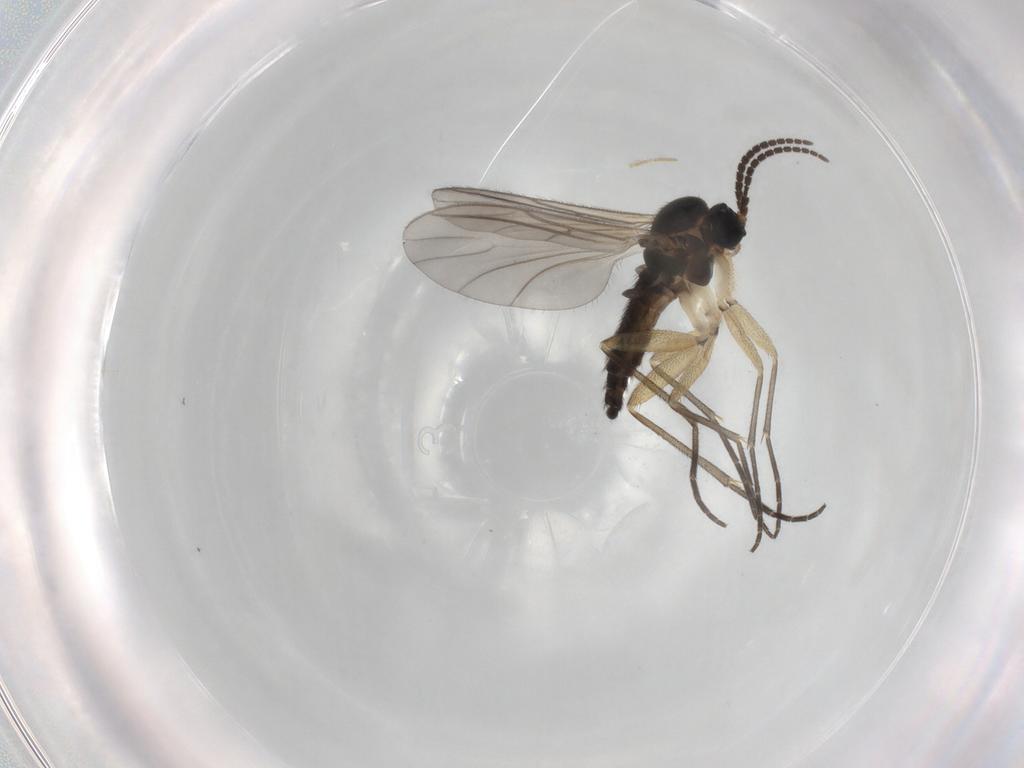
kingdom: Animalia
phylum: Arthropoda
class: Insecta
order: Diptera
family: Sciaridae
